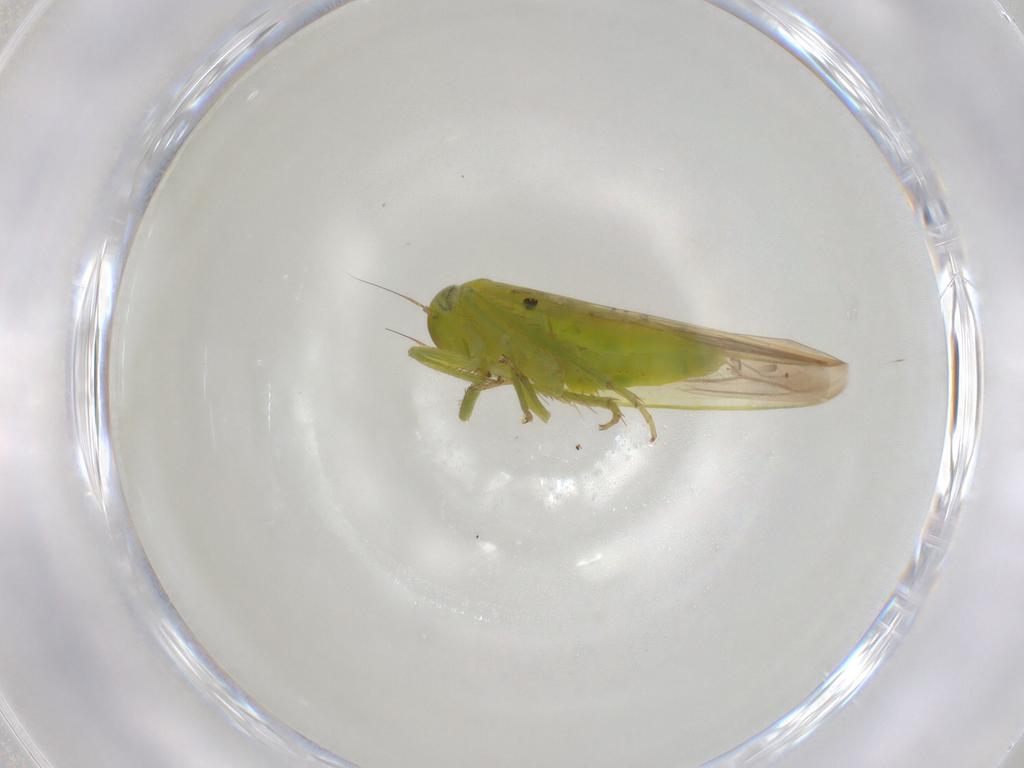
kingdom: Animalia
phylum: Arthropoda
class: Insecta
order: Hemiptera
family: Cicadellidae
